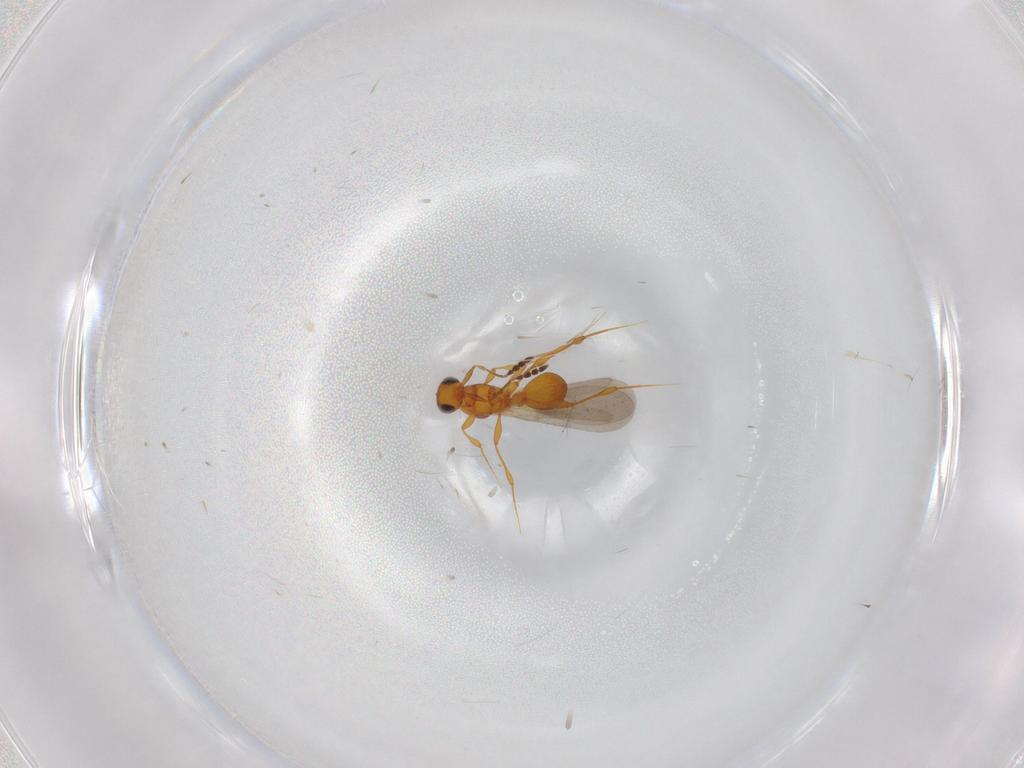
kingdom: Animalia
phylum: Arthropoda
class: Insecta
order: Hymenoptera
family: Platygastridae
